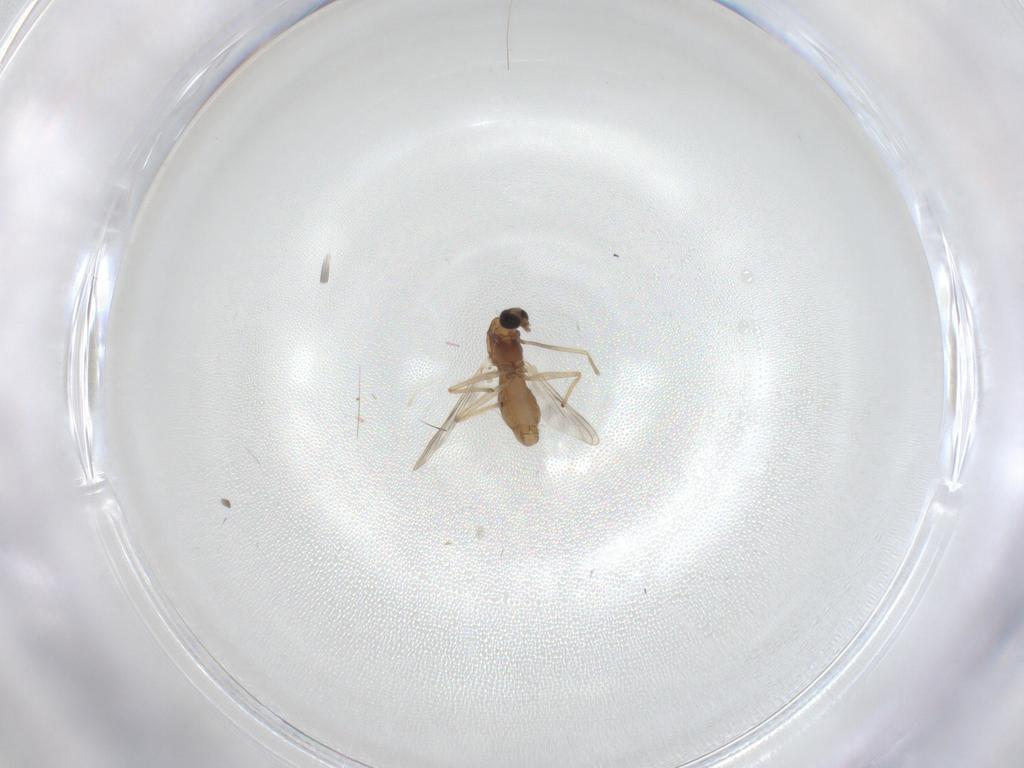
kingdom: Animalia
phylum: Arthropoda
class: Insecta
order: Diptera
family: Chironomidae
